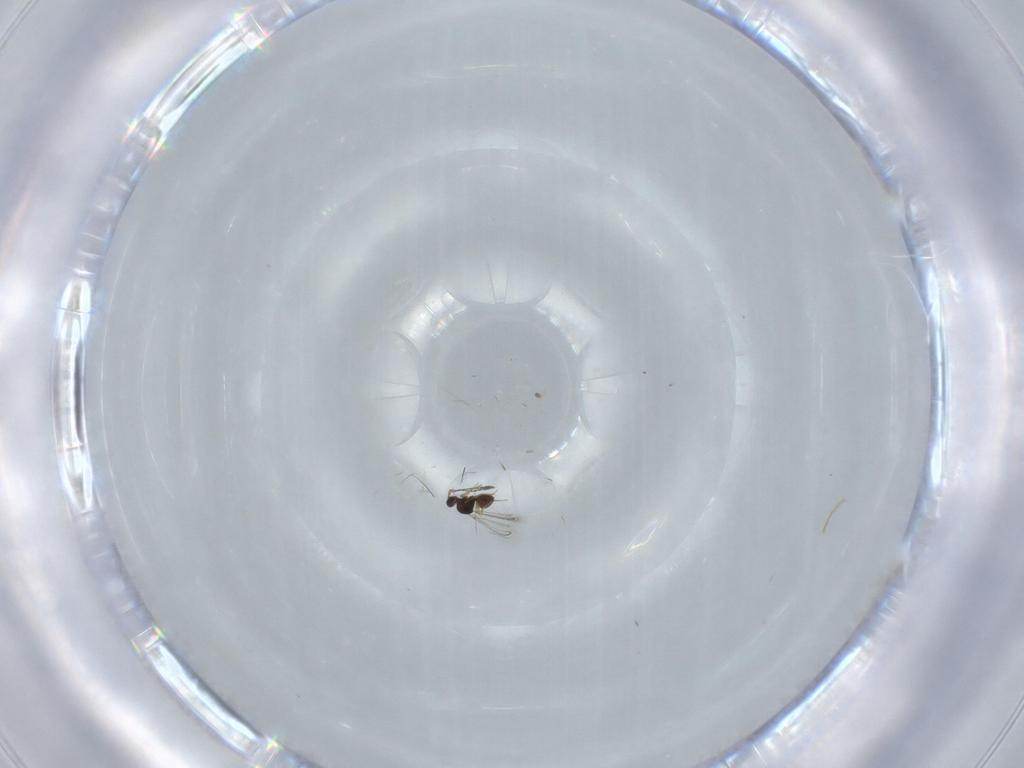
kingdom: Animalia
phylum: Arthropoda
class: Insecta
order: Hymenoptera
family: Mymaridae
